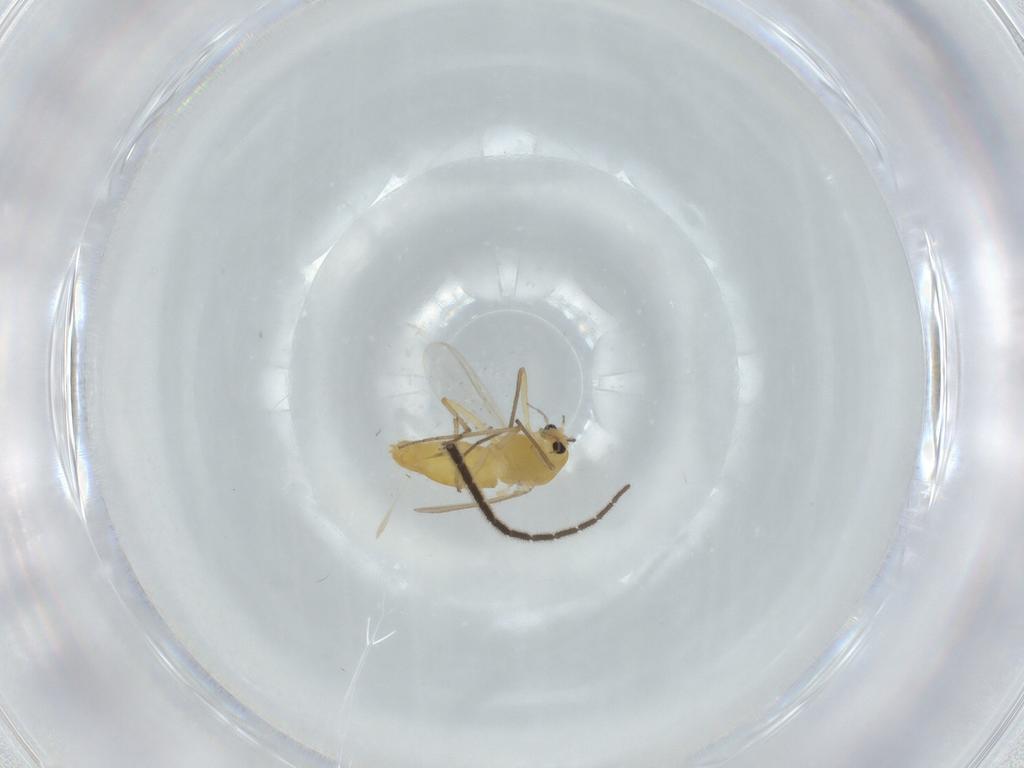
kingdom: Animalia
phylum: Arthropoda
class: Insecta
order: Diptera
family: Chironomidae
